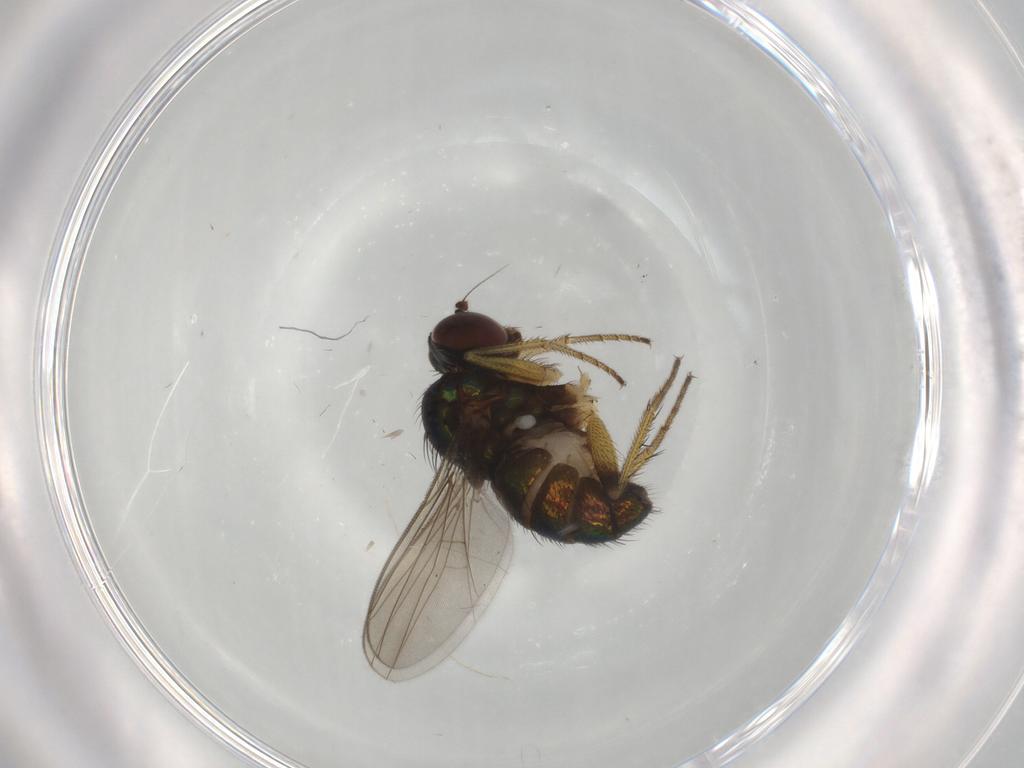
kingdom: Animalia
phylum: Arthropoda
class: Insecta
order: Diptera
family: Dolichopodidae
